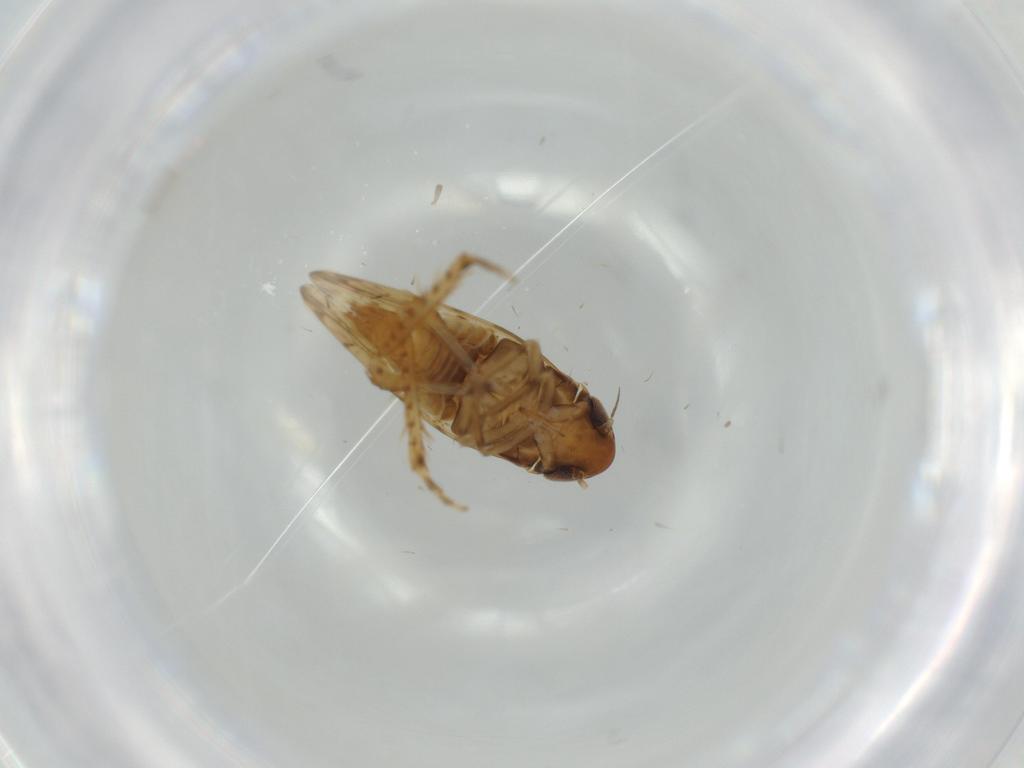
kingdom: Animalia
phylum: Arthropoda
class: Insecta
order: Hemiptera
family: Cicadellidae
